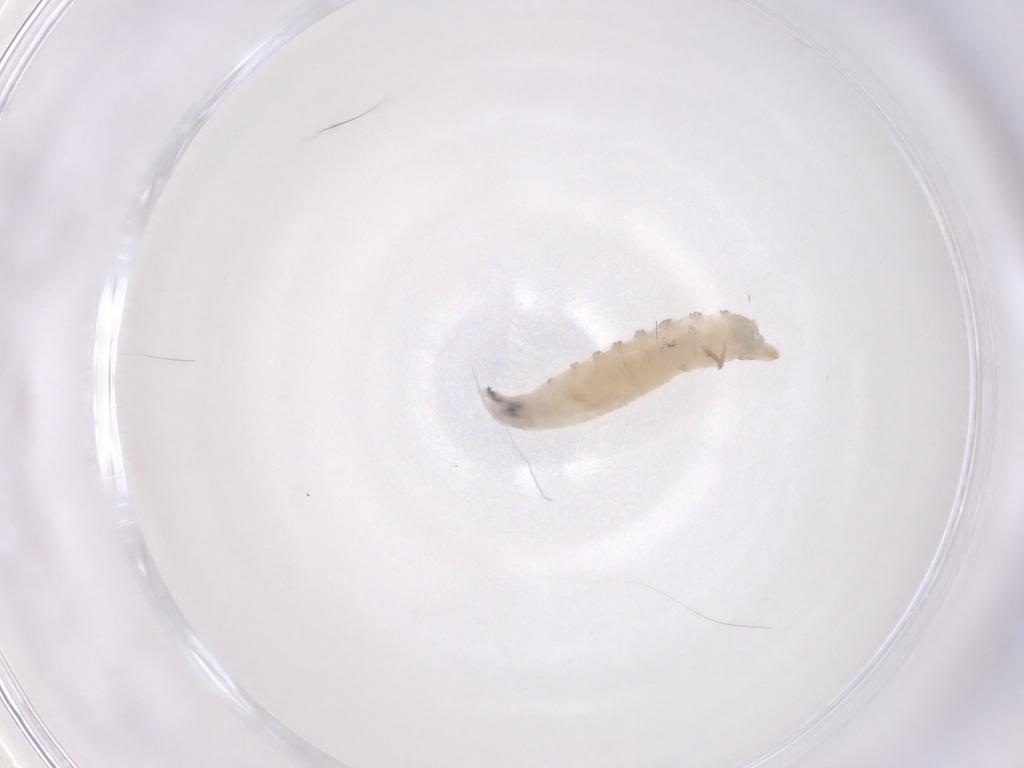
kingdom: Animalia
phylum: Arthropoda
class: Insecta
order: Diptera
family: Drosophilidae
